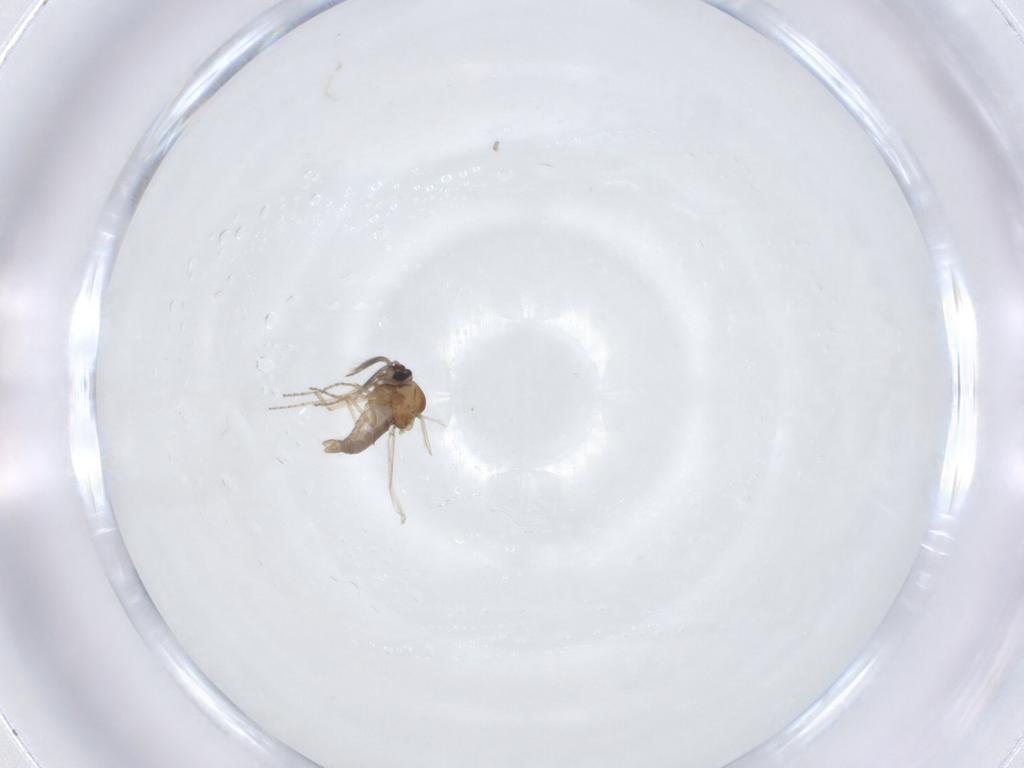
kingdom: Animalia
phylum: Arthropoda
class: Insecta
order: Diptera
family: Ceratopogonidae
